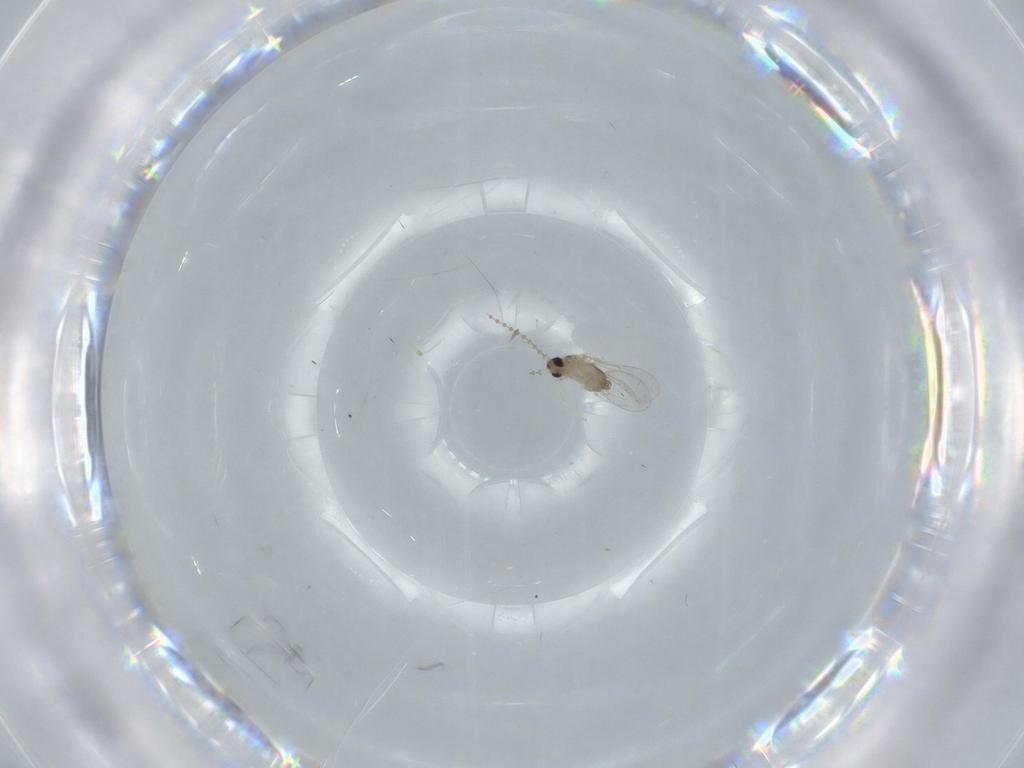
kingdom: Animalia
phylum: Arthropoda
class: Insecta
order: Diptera
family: Cecidomyiidae
